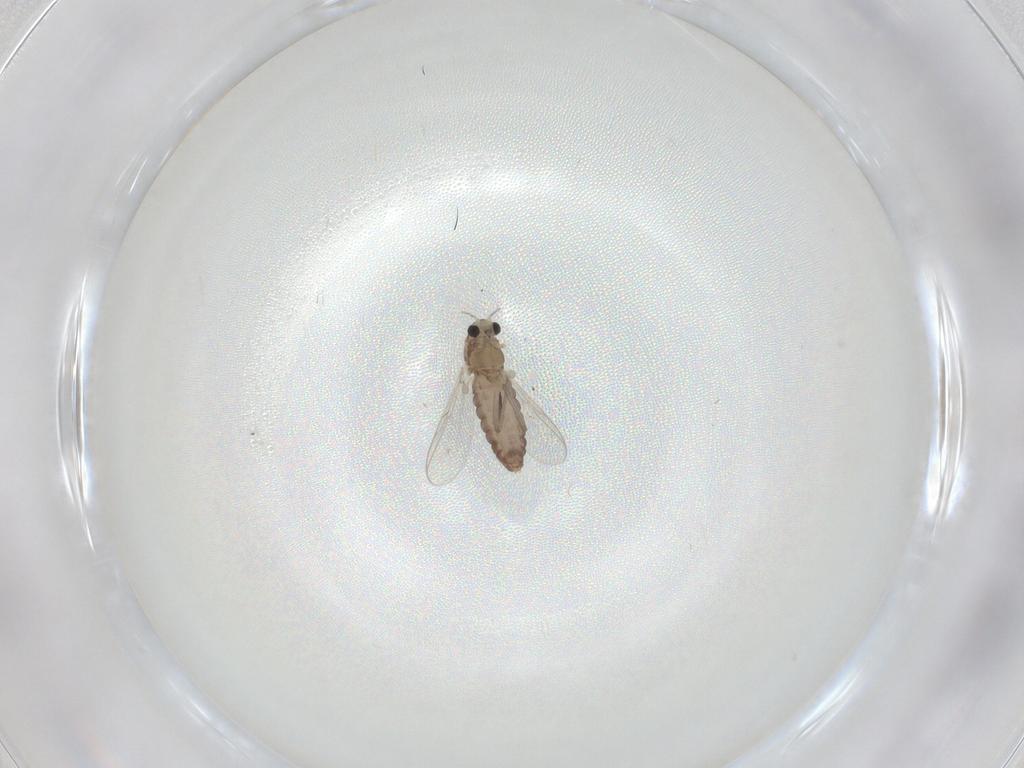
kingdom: Animalia
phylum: Arthropoda
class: Insecta
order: Diptera
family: Chironomidae
